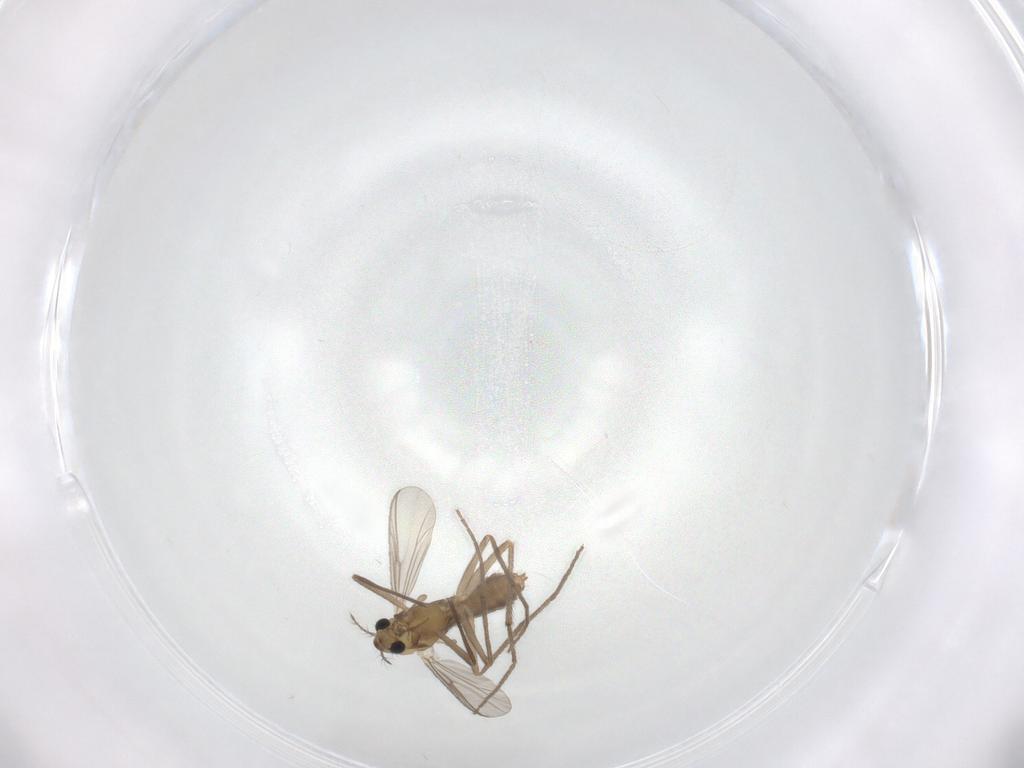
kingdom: Animalia
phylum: Arthropoda
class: Insecta
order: Diptera
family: Chironomidae
